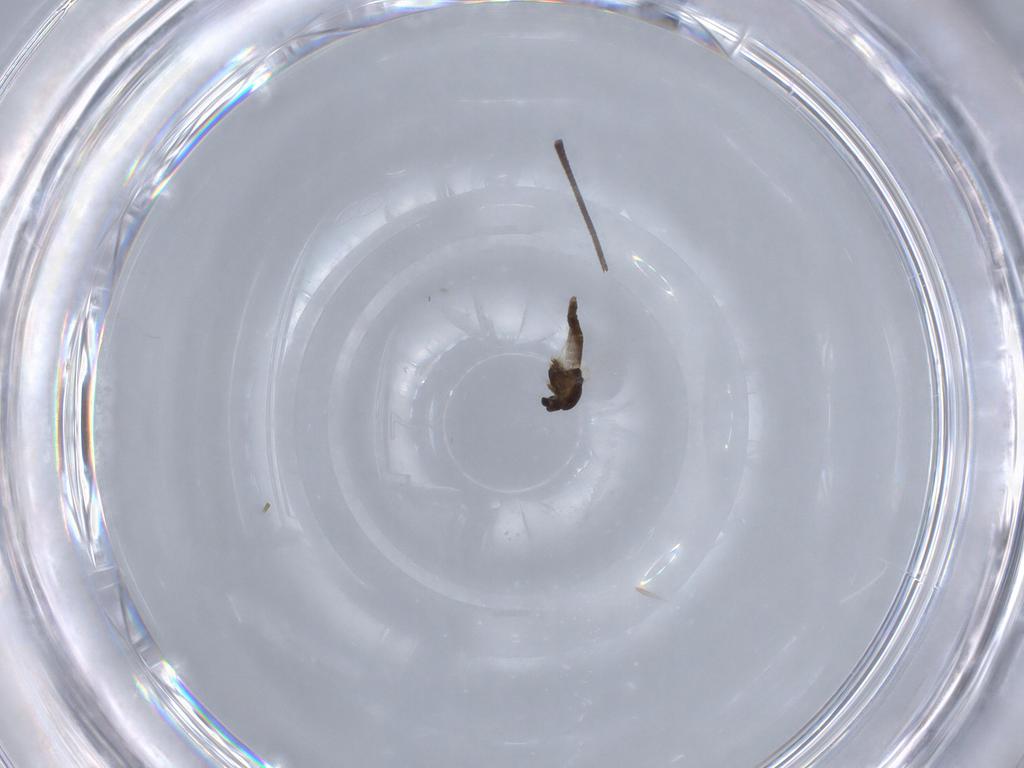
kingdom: Animalia
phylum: Arthropoda
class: Insecta
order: Diptera
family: Chironomidae
